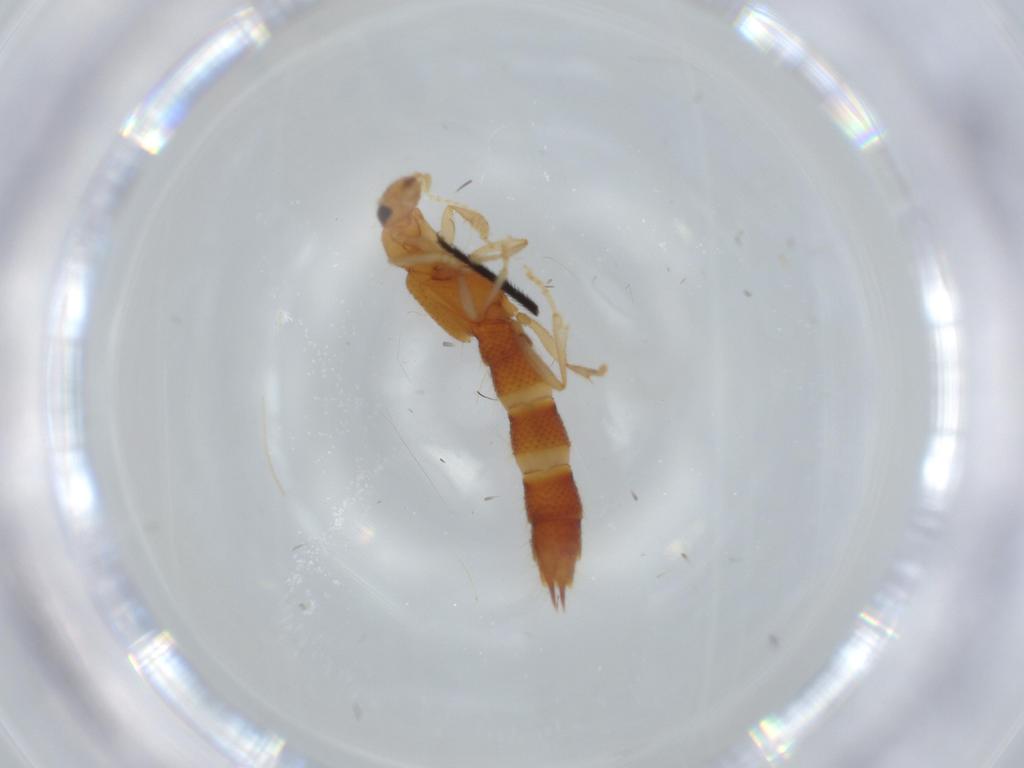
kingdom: Animalia
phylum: Arthropoda
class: Insecta
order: Coleoptera
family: Staphylinidae
